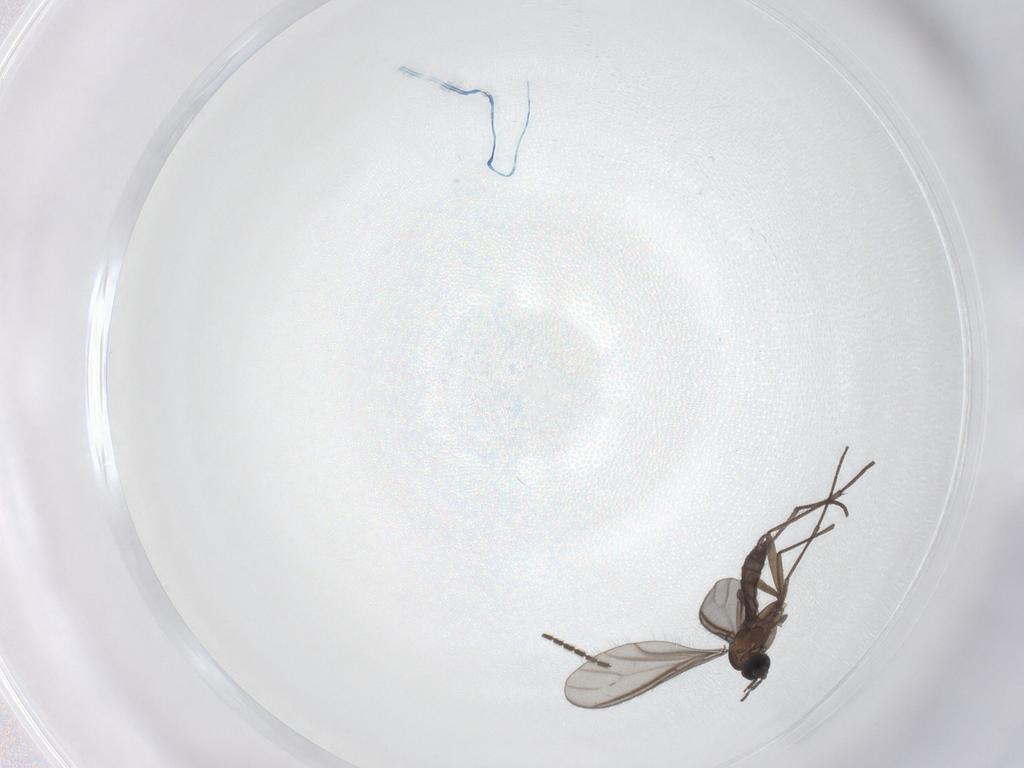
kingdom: Animalia
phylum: Arthropoda
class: Insecta
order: Diptera
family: Sciaridae
